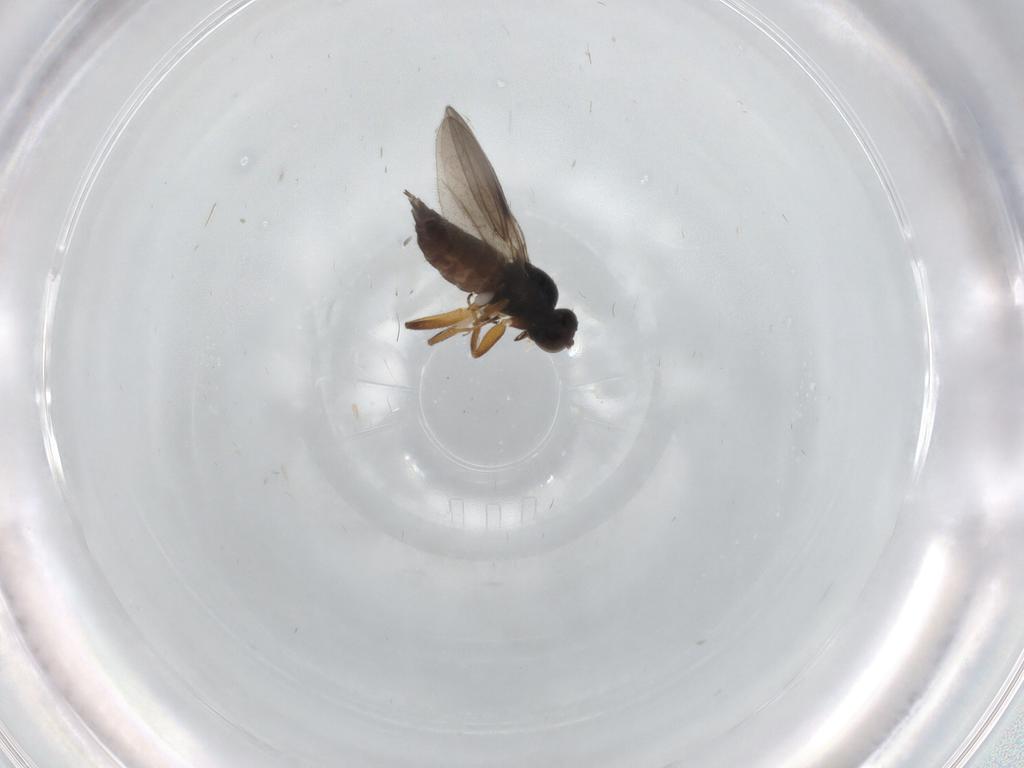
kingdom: Animalia
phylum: Arthropoda
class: Insecta
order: Diptera
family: Hybotidae
